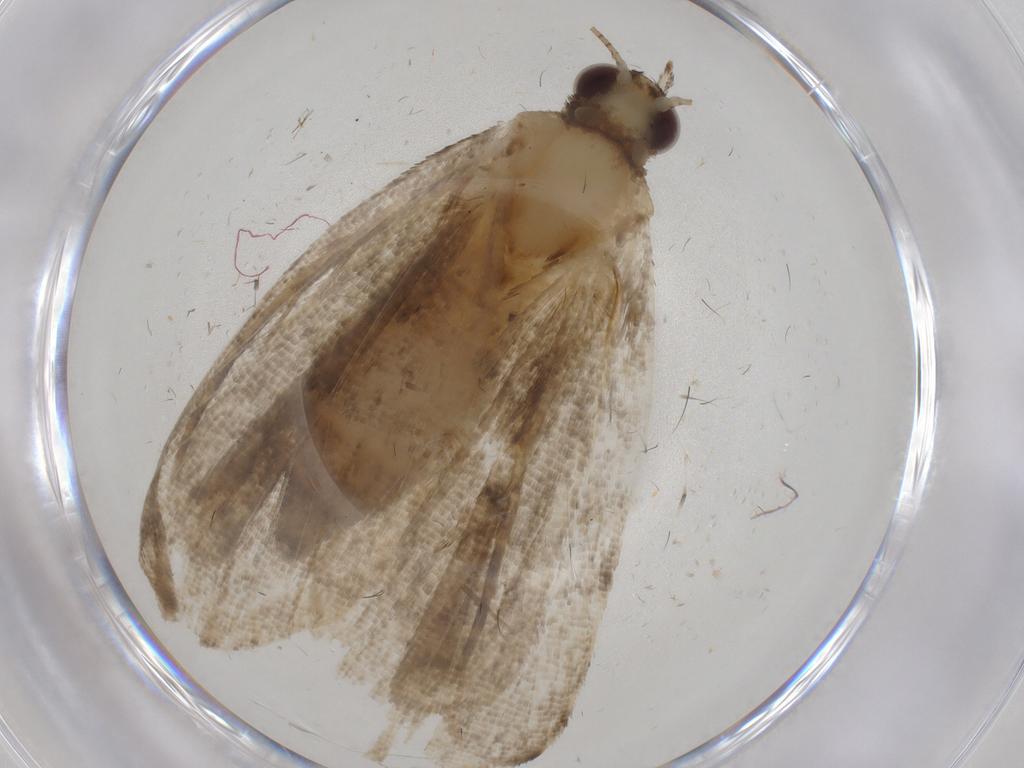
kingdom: Animalia
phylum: Arthropoda
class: Insecta
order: Lepidoptera
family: Erebidae
